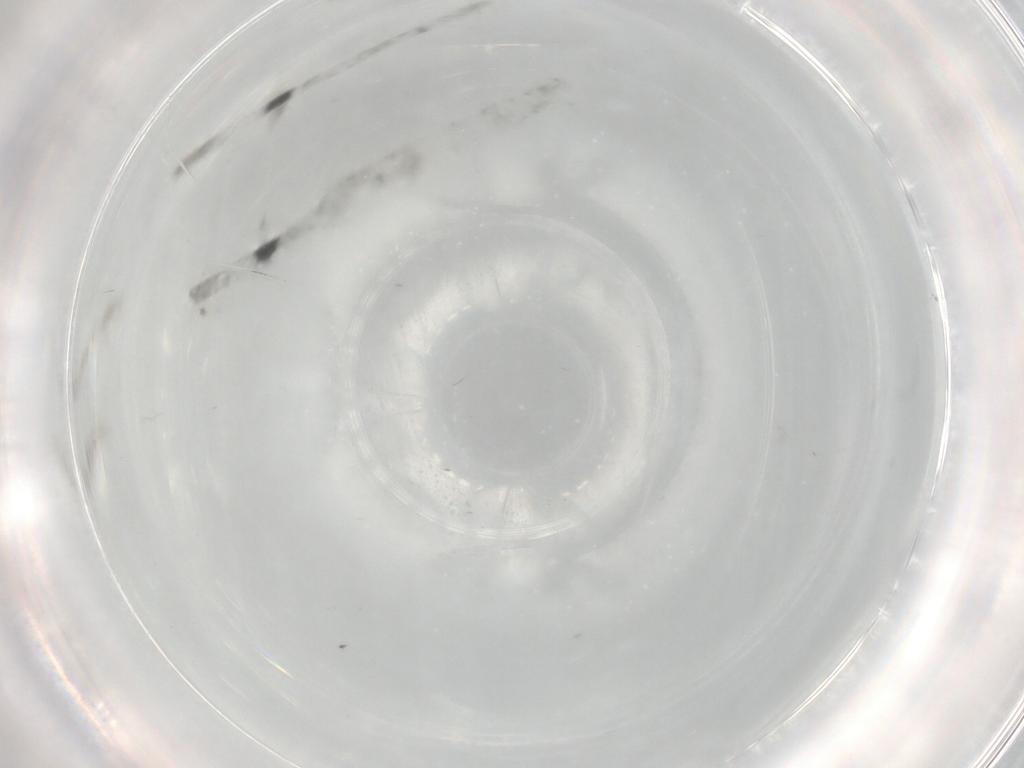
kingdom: Animalia
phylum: Arthropoda
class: Insecta
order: Diptera
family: Psychodidae
